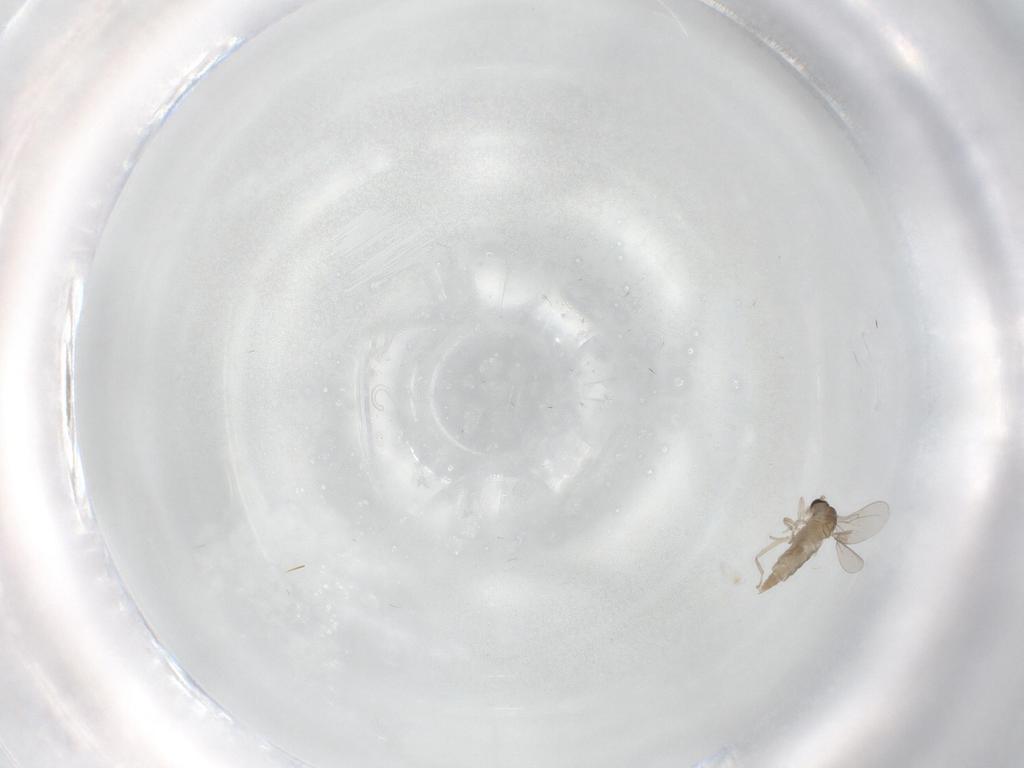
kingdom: Animalia
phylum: Arthropoda
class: Insecta
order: Diptera
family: Cecidomyiidae
